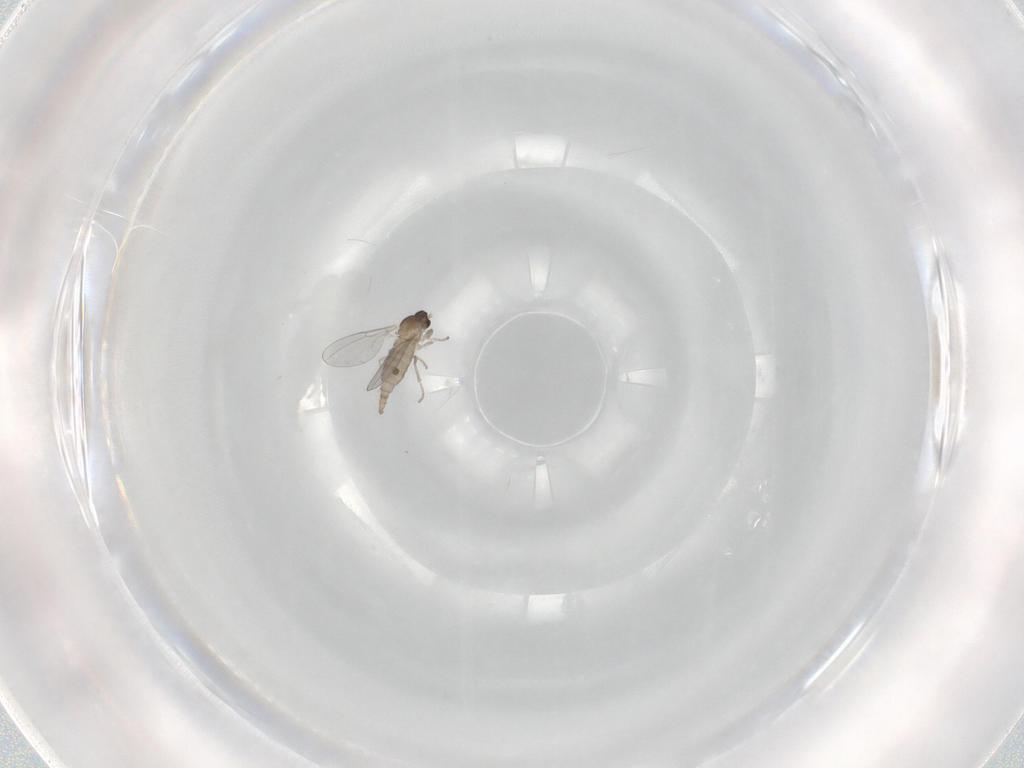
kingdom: Animalia
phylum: Arthropoda
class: Insecta
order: Diptera
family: Cecidomyiidae
